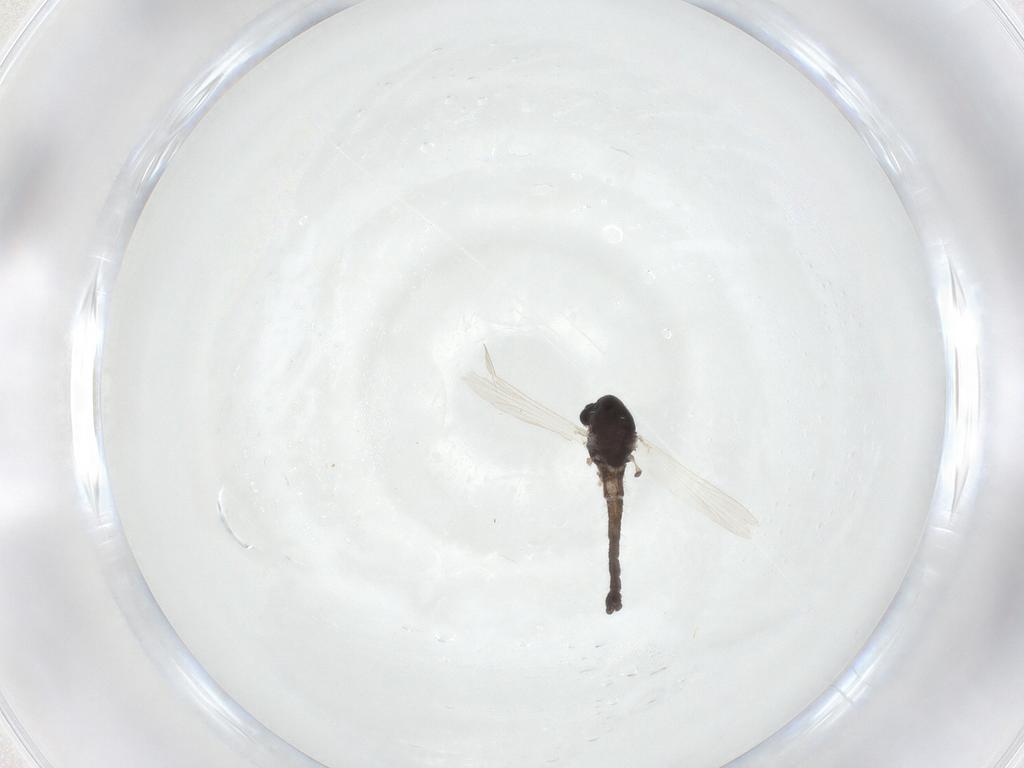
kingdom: Animalia
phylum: Arthropoda
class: Insecta
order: Diptera
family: Chironomidae
